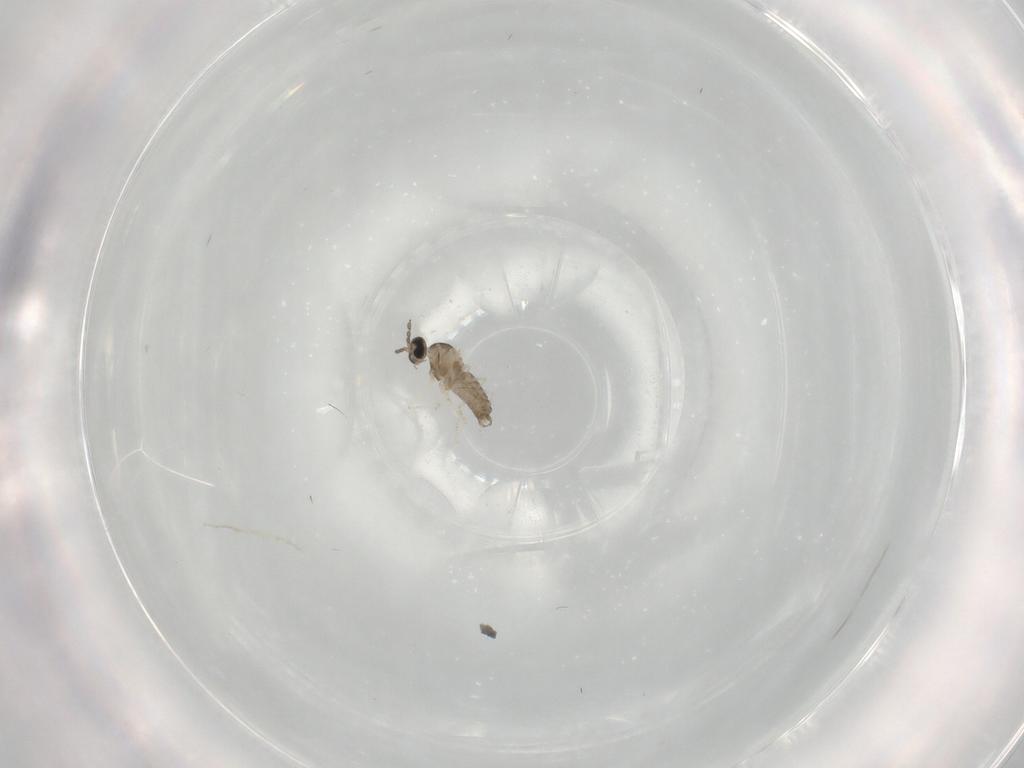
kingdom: Animalia
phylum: Arthropoda
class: Insecta
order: Diptera
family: Cecidomyiidae
